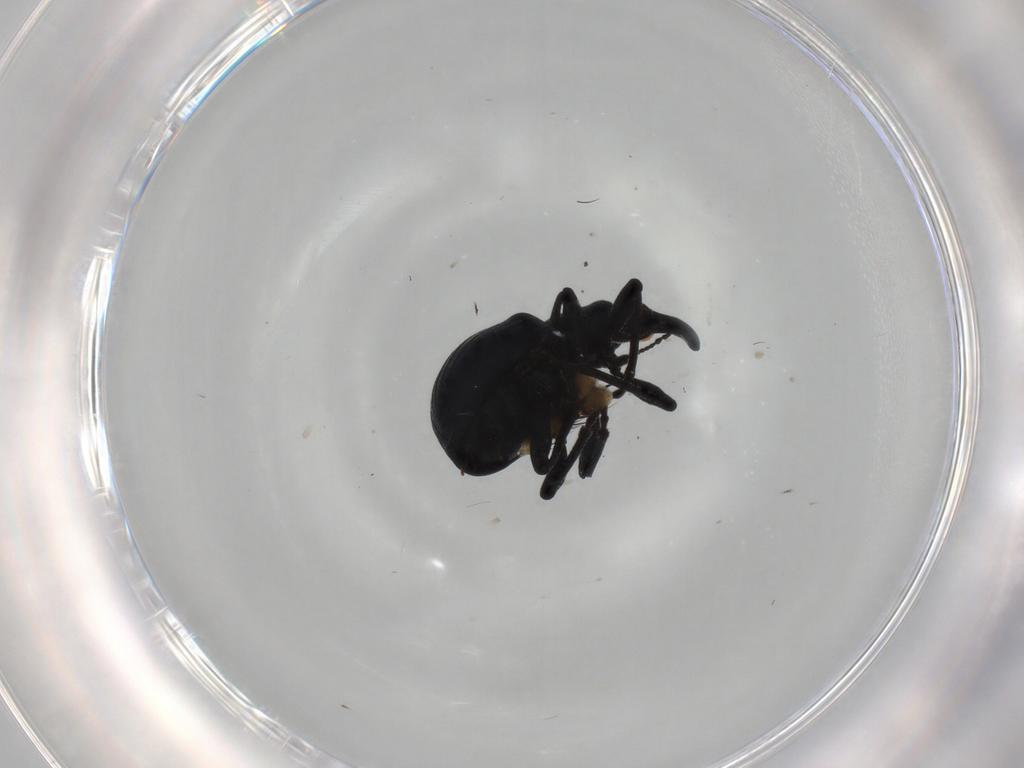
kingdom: Animalia
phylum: Arthropoda
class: Insecta
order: Coleoptera
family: Apionidae
